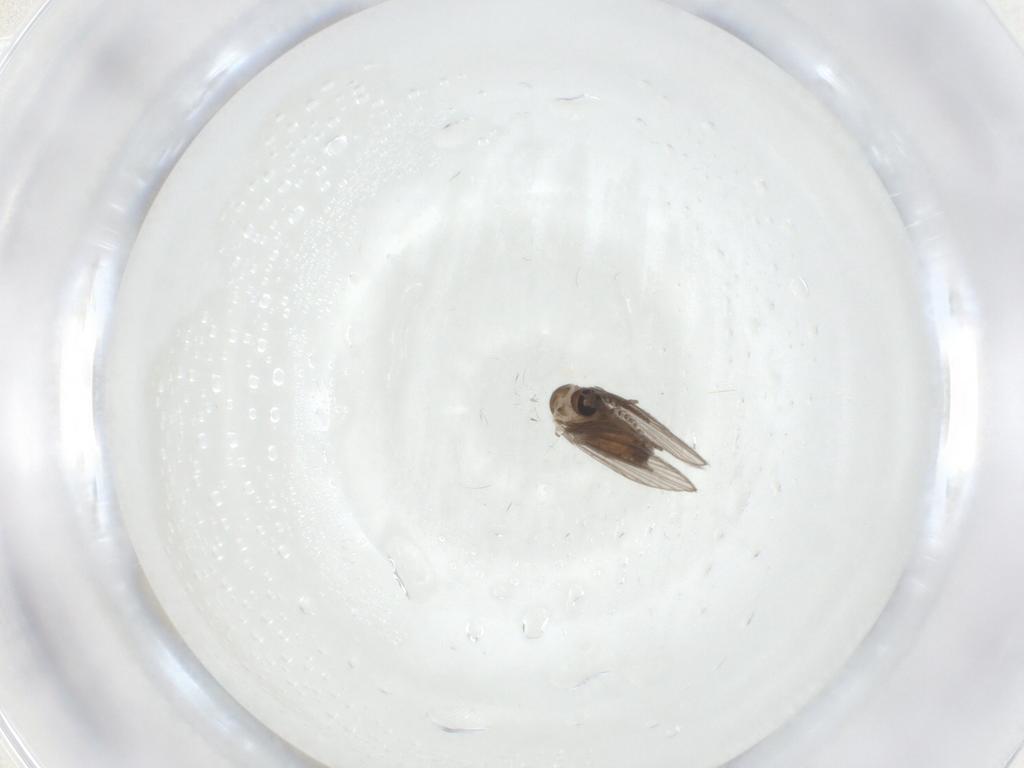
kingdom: Animalia
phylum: Arthropoda
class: Insecta
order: Diptera
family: Psychodidae
